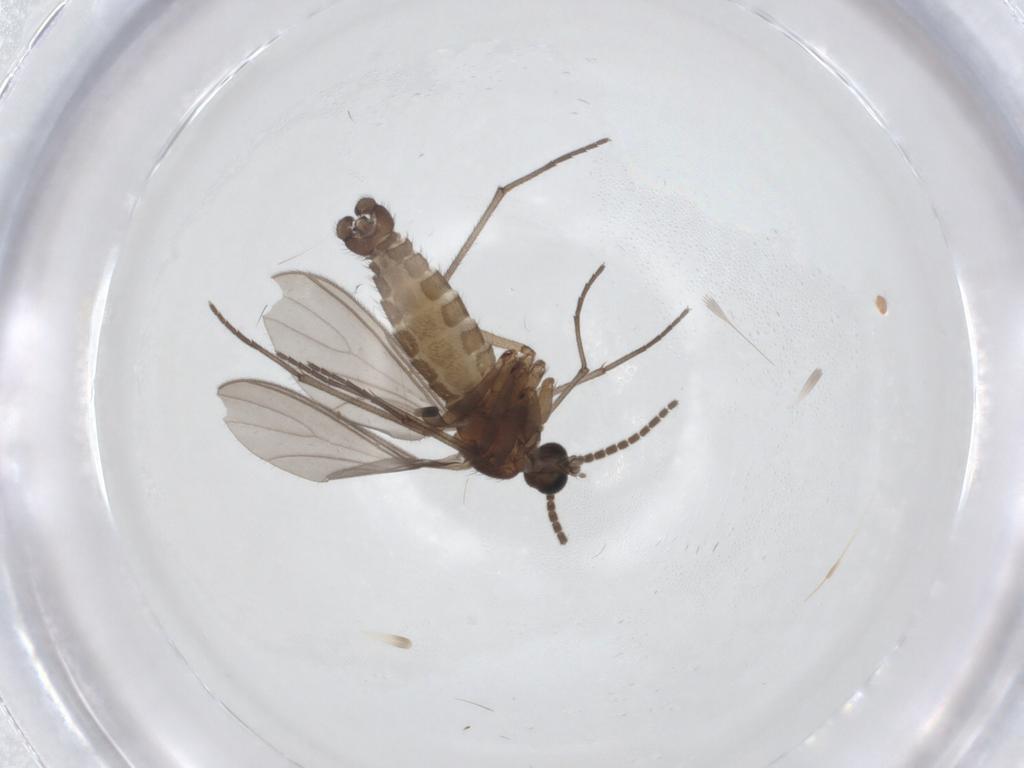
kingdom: Animalia
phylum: Arthropoda
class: Insecta
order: Diptera
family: Sciaridae
